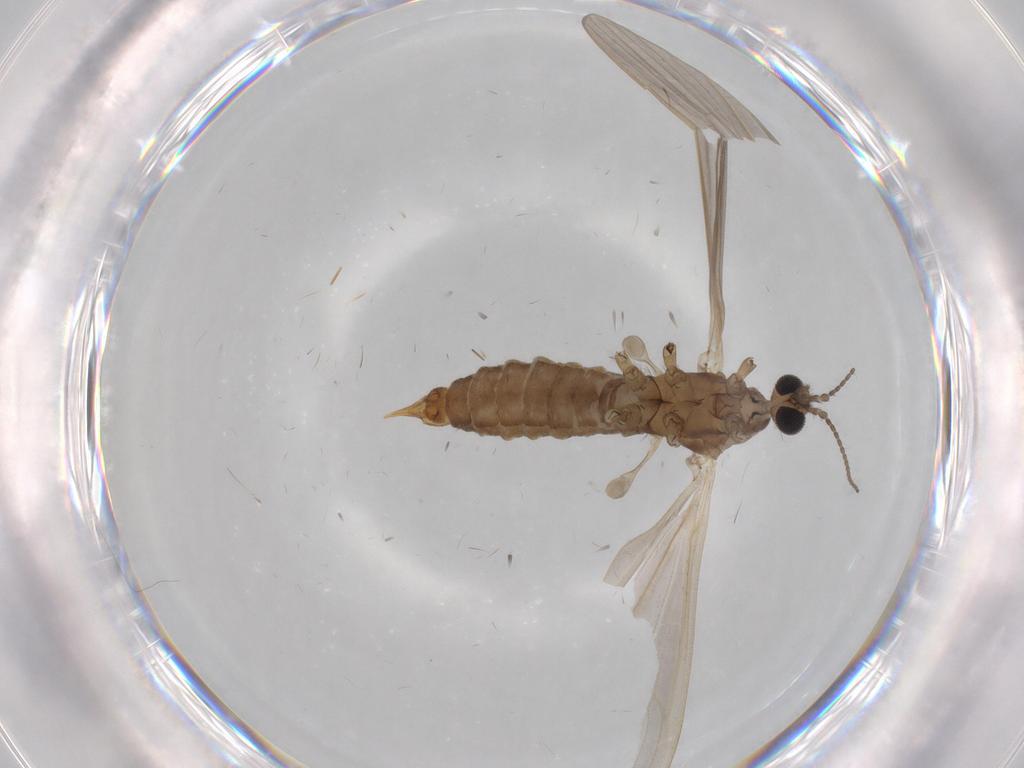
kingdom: Animalia
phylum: Arthropoda
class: Insecta
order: Diptera
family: Limoniidae
